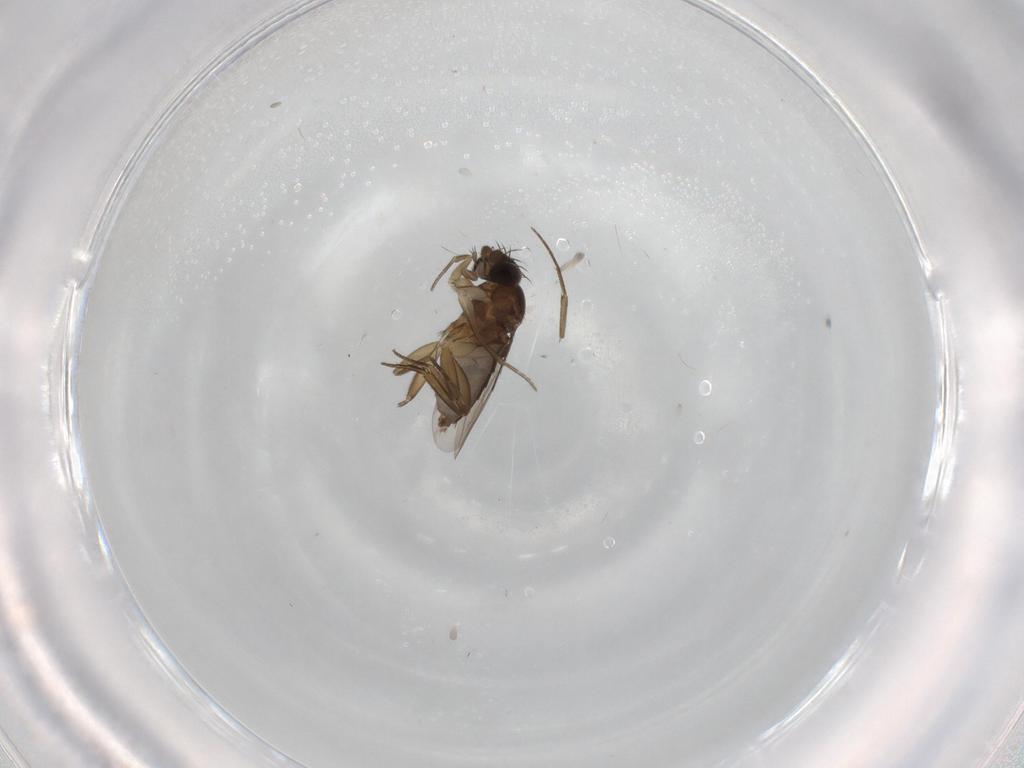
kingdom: Animalia
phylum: Arthropoda
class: Insecta
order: Diptera
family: Phoridae
